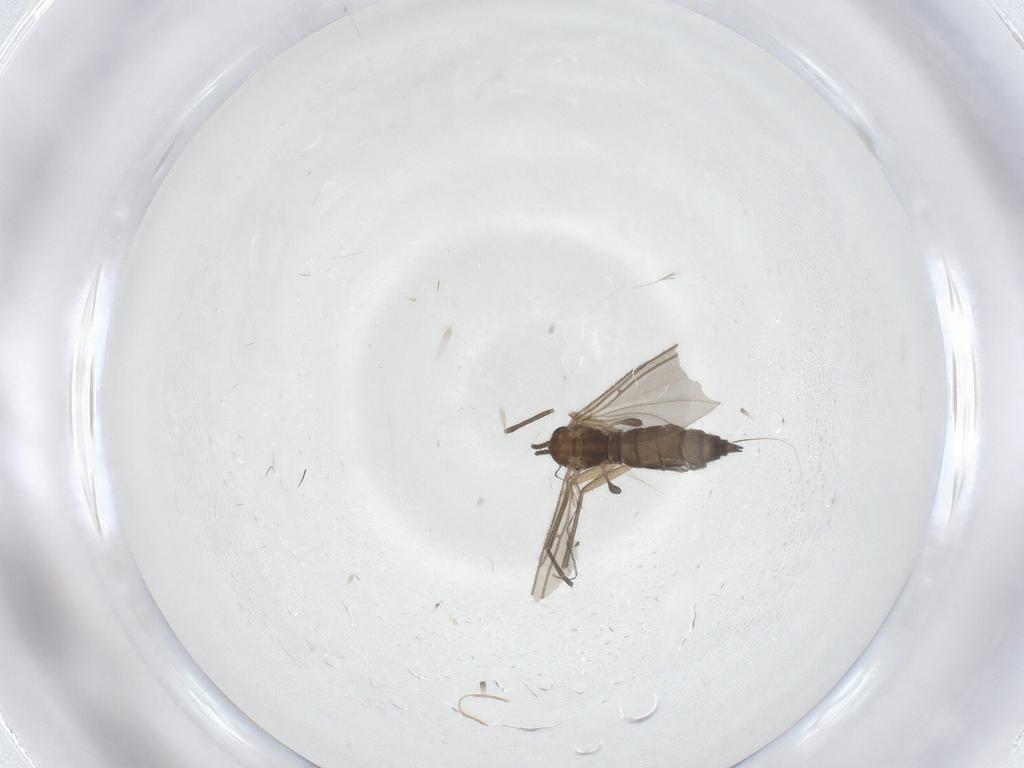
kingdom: Animalia
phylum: Arthropoda
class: Insecta
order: Diptera
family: Sciaridae
